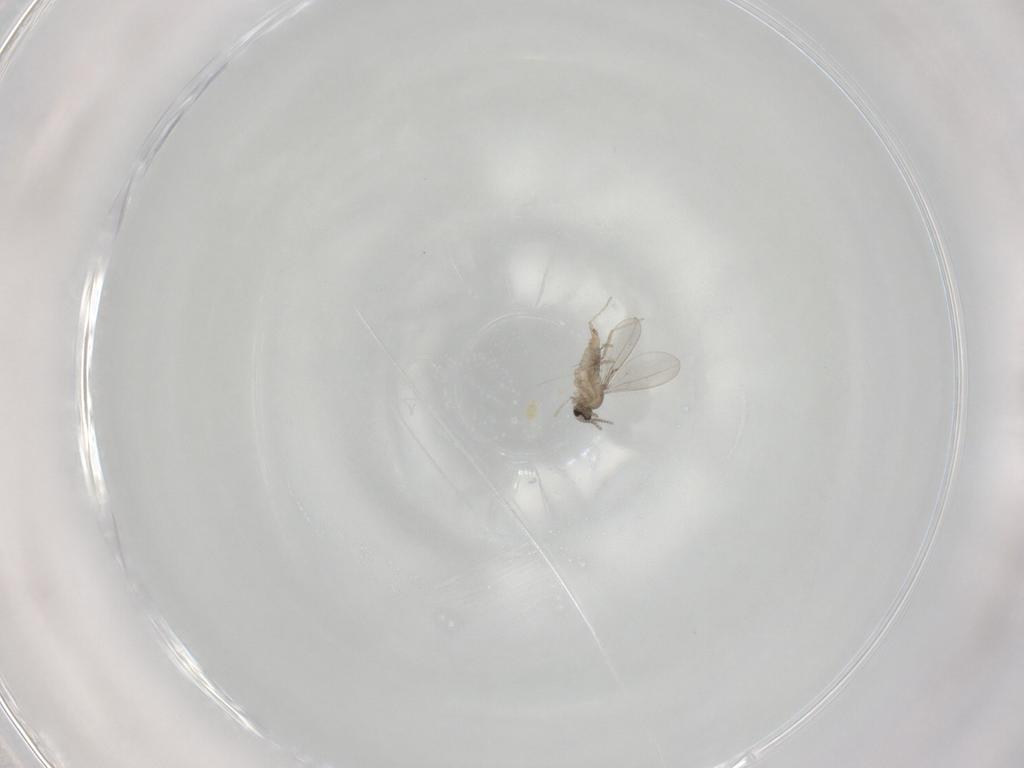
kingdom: Animalia
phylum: Arthropoda
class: Insecta
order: Diptera
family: Cecidomyiidae
